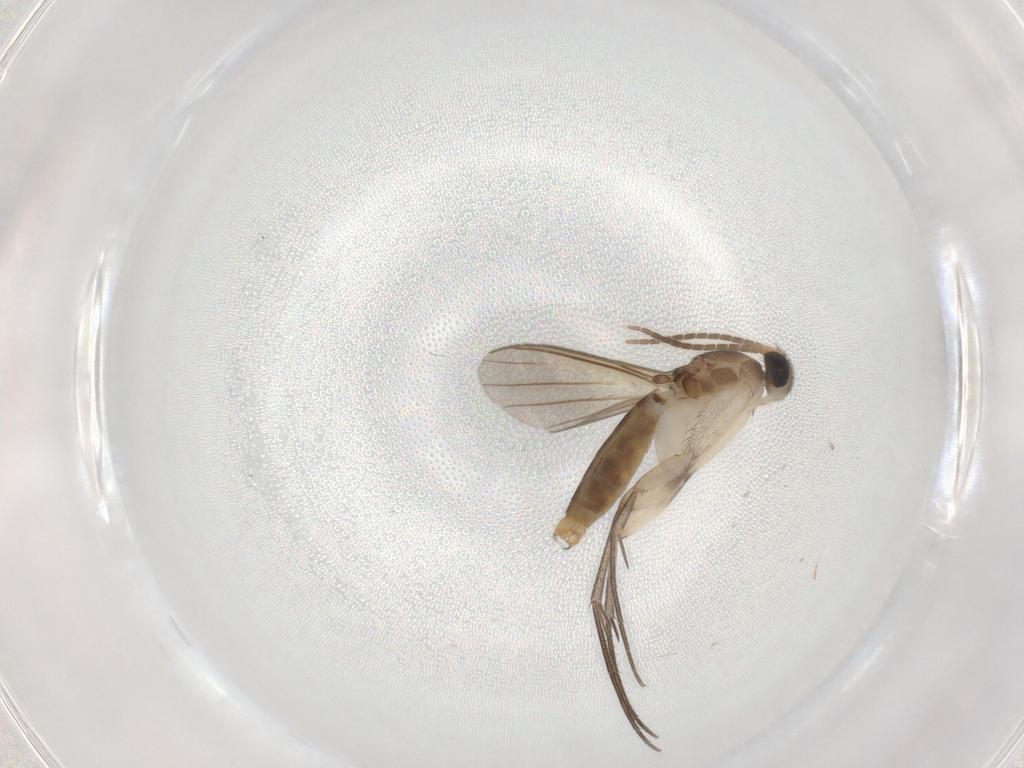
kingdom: Animalia
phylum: Arthropoda
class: Insecta
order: Diptera
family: Mycetophilidae
